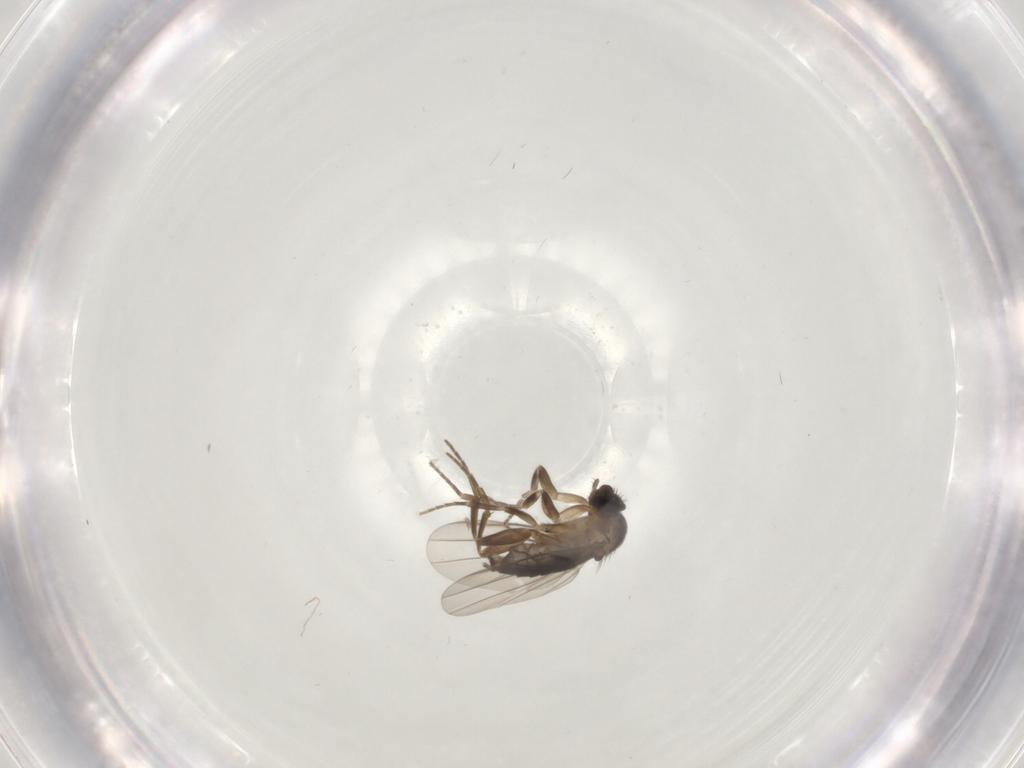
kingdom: Animalia
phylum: Arthropoda
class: Insecta
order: Diptera
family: Phoridae
